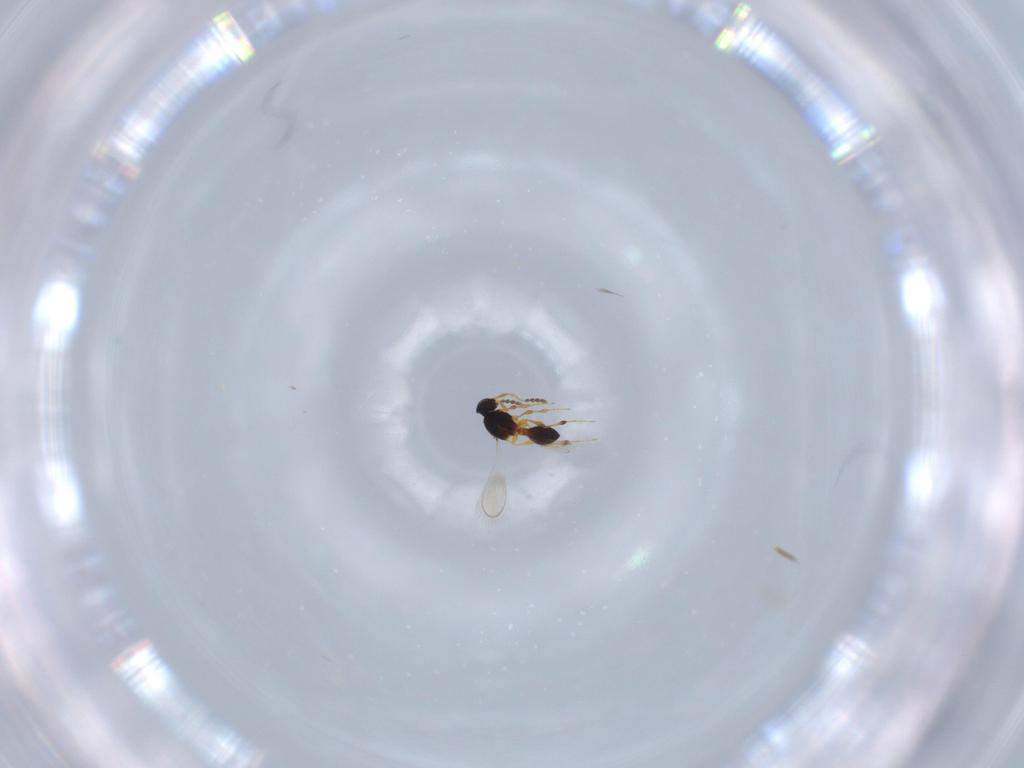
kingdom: Animalia
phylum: Arthropoda
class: Insecta
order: Hymenoptera
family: Platygastridae
